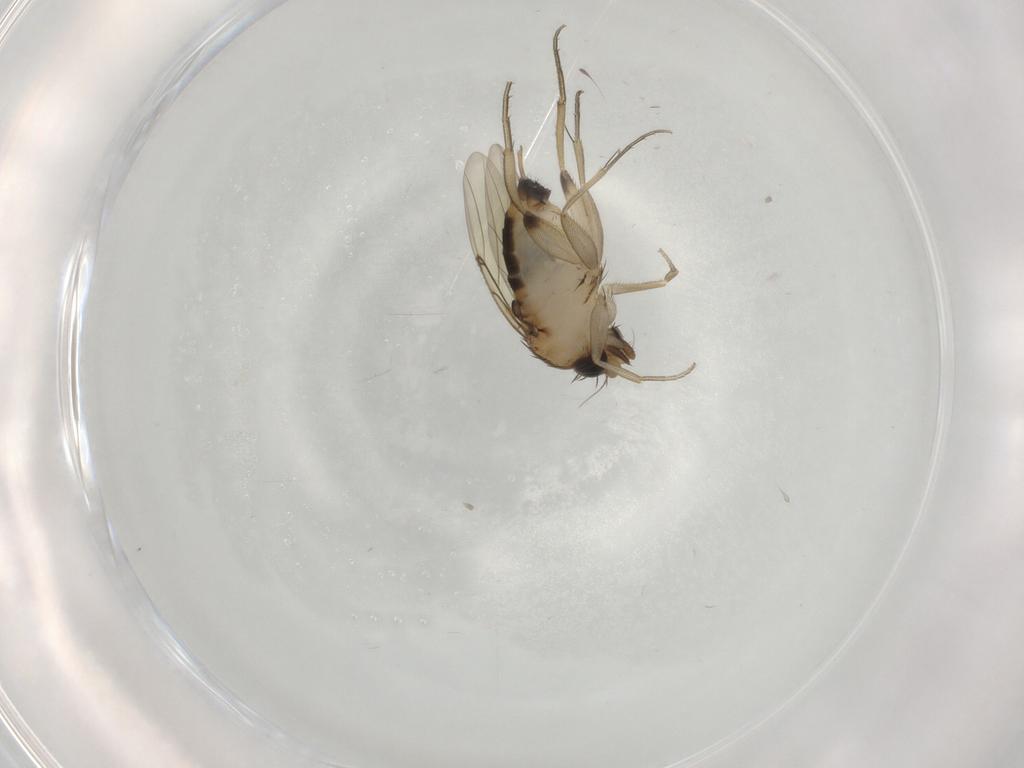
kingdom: Animalia
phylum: Arthropoda
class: Insecta
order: Diptera
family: Phoridae
